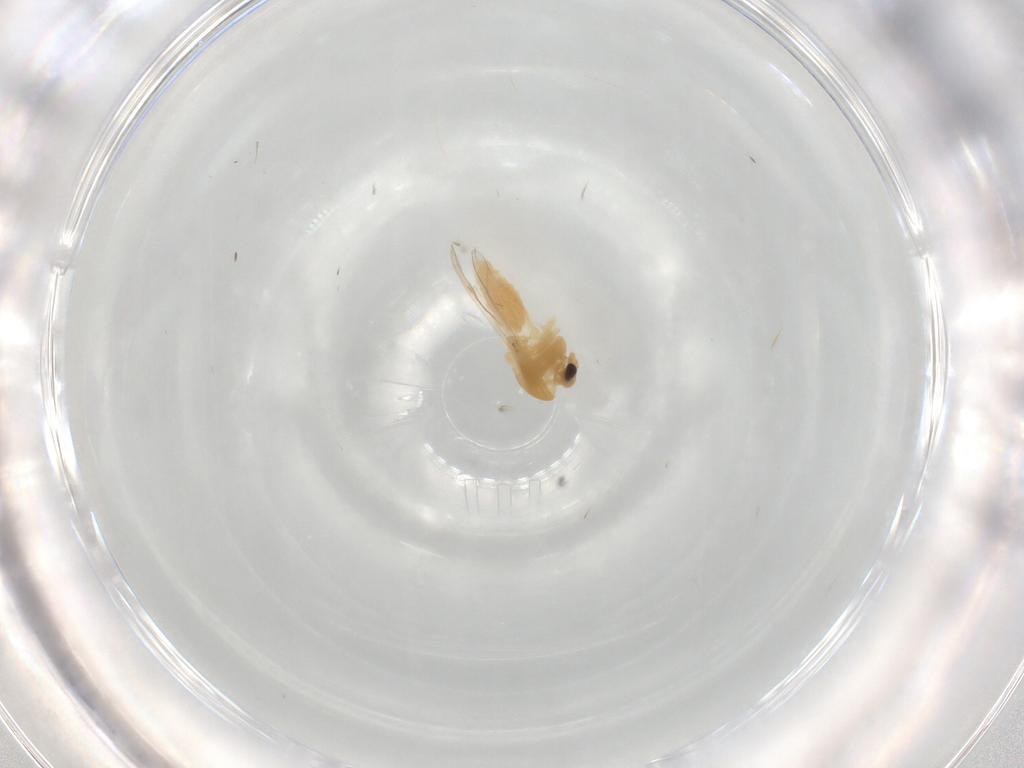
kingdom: Animalia
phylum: Arthropoda
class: Insecta
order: Diptera
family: Chironomidae
